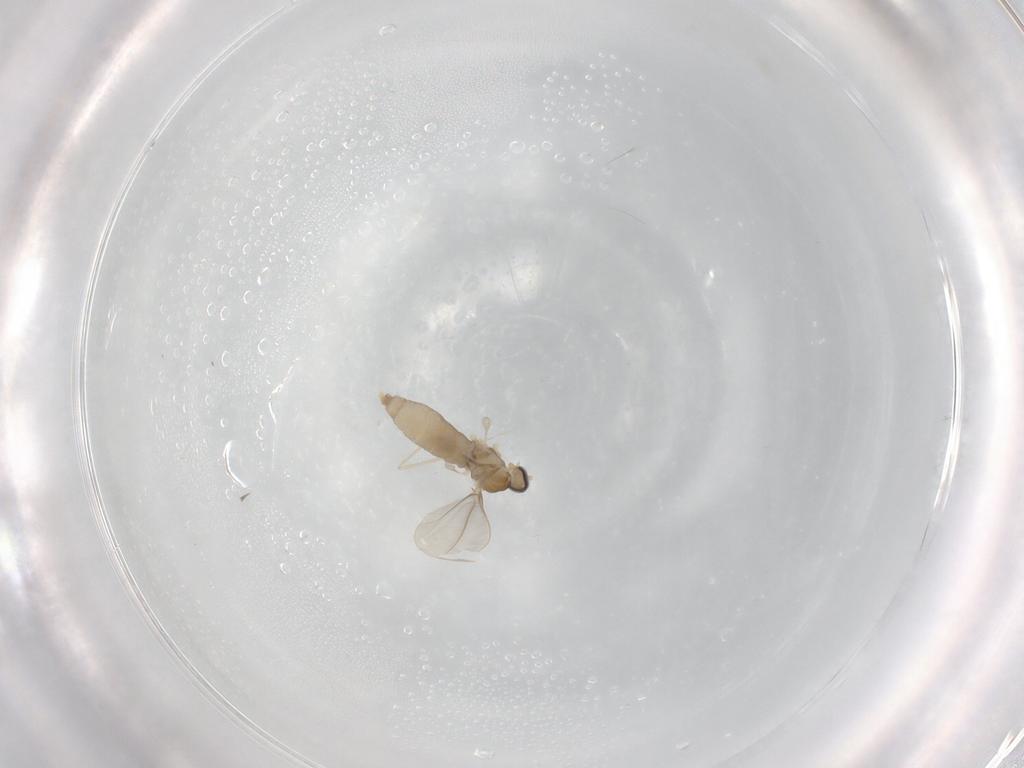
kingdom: Animalia
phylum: Arthropoda
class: Insecta
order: Diptera
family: Cecidomyiidae
